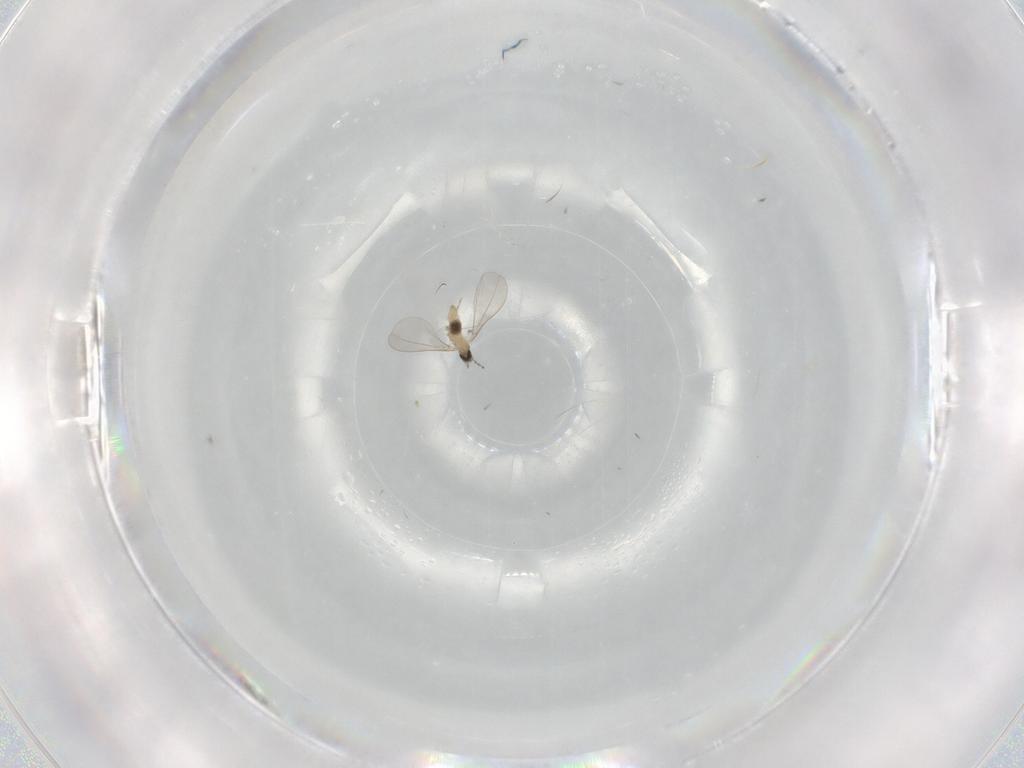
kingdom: Animalia
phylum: Arthropoda
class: Insecta
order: Diptera
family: Cecidomyiidae
